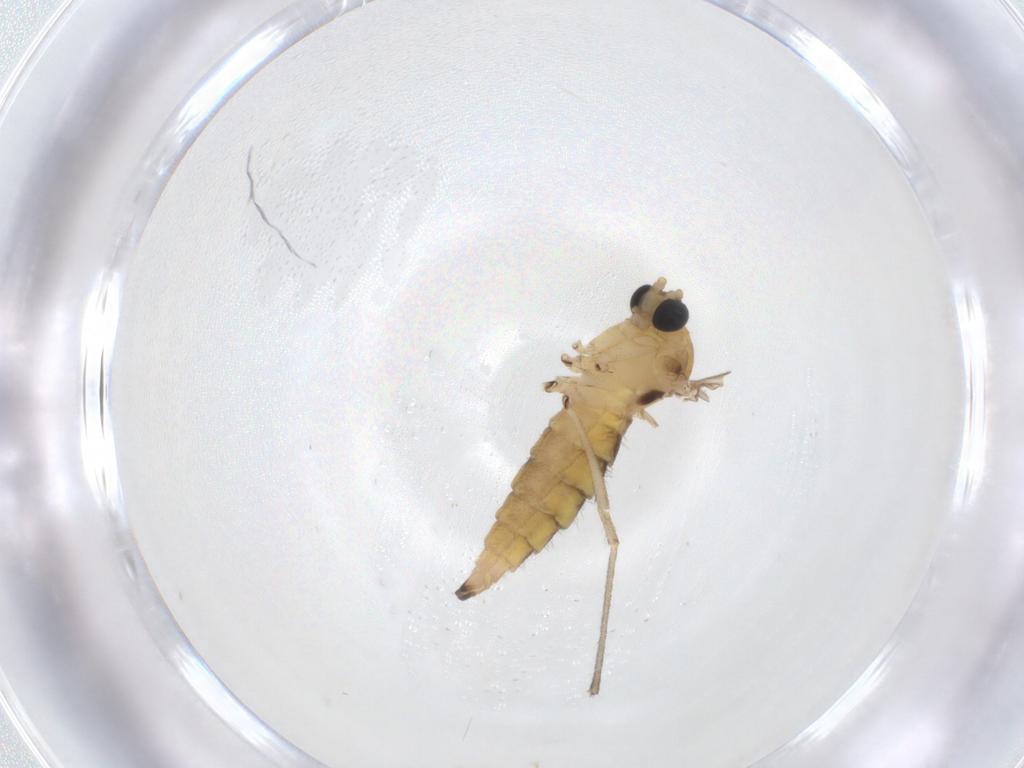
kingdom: Animalia
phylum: Arthropoda
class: Insecta
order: Diptera
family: Sciaridae
